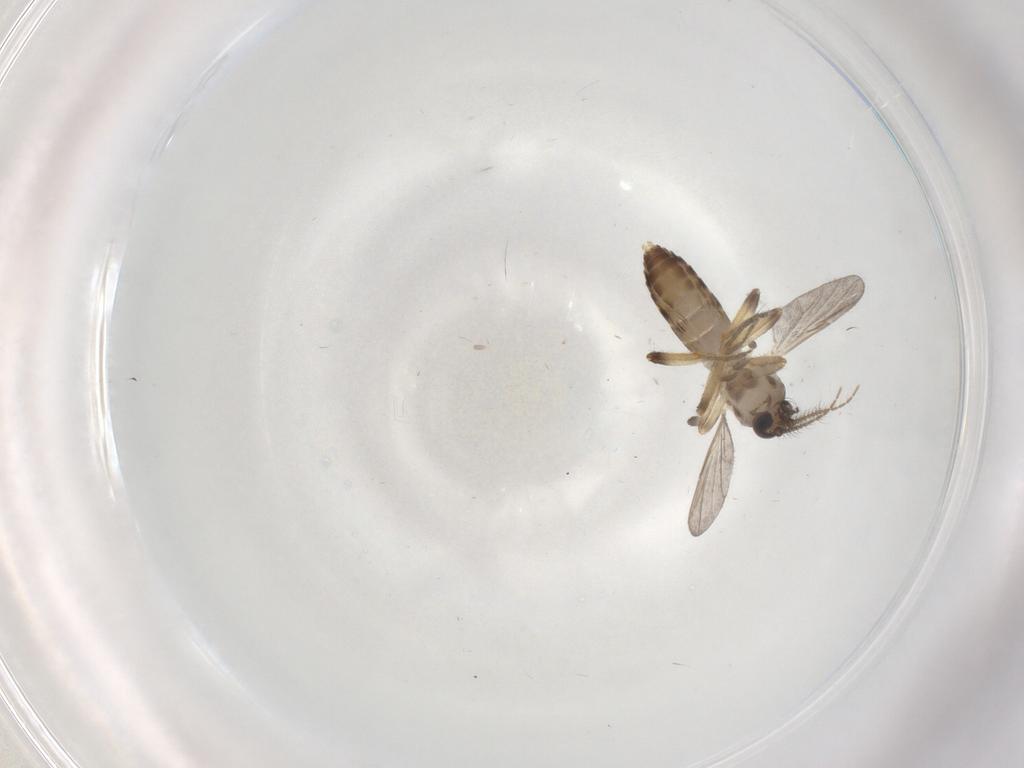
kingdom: Animalia
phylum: Arthropoda
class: Insecta
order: Diptera
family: Ceratopogonidae
